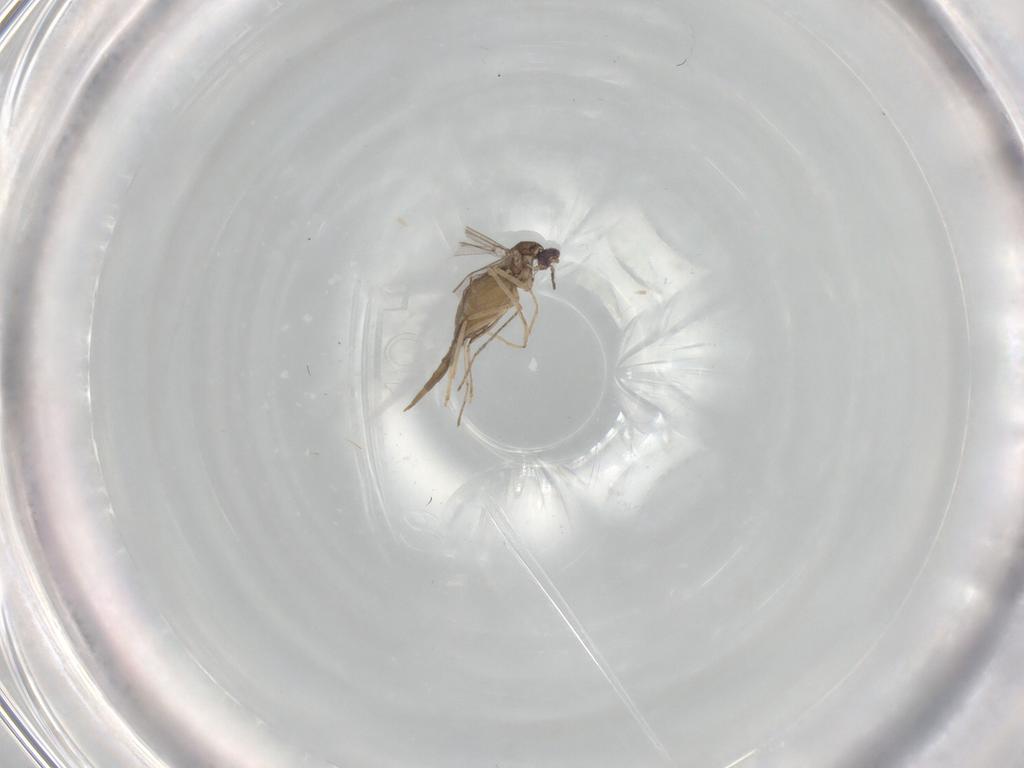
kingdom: Animalia
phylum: Arthropoda
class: Insecta
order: Diptera
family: Cecidomyiidae
